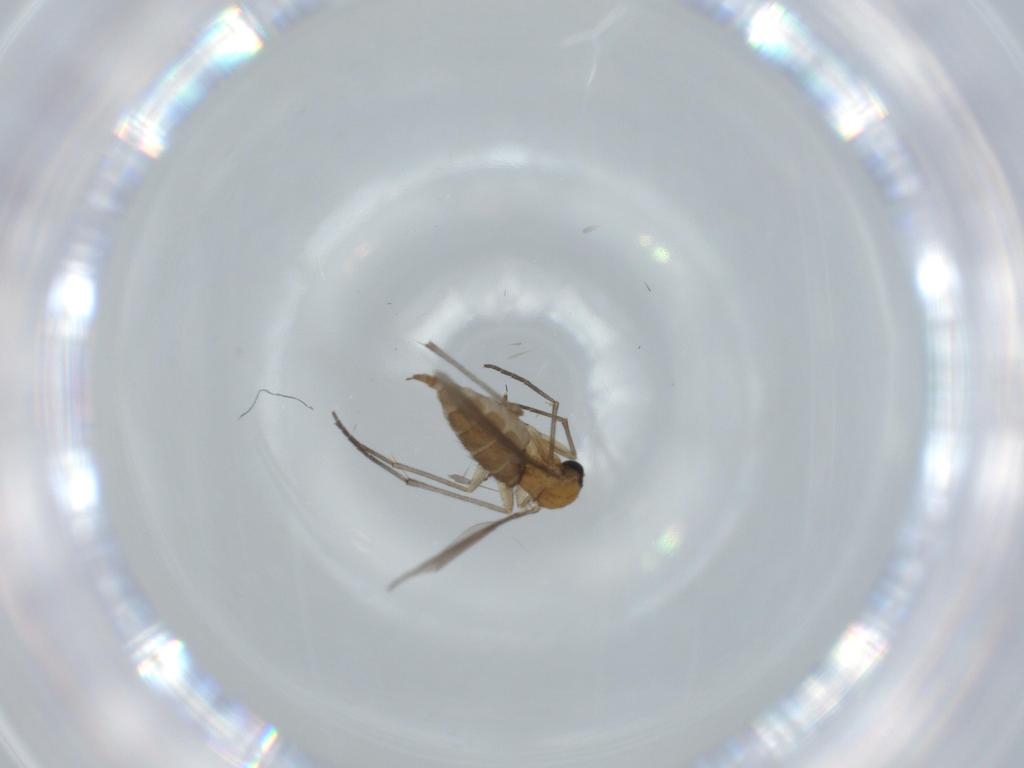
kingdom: Animalia
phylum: Arthropoda
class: Insecta
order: Diptera
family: Sciaridae
